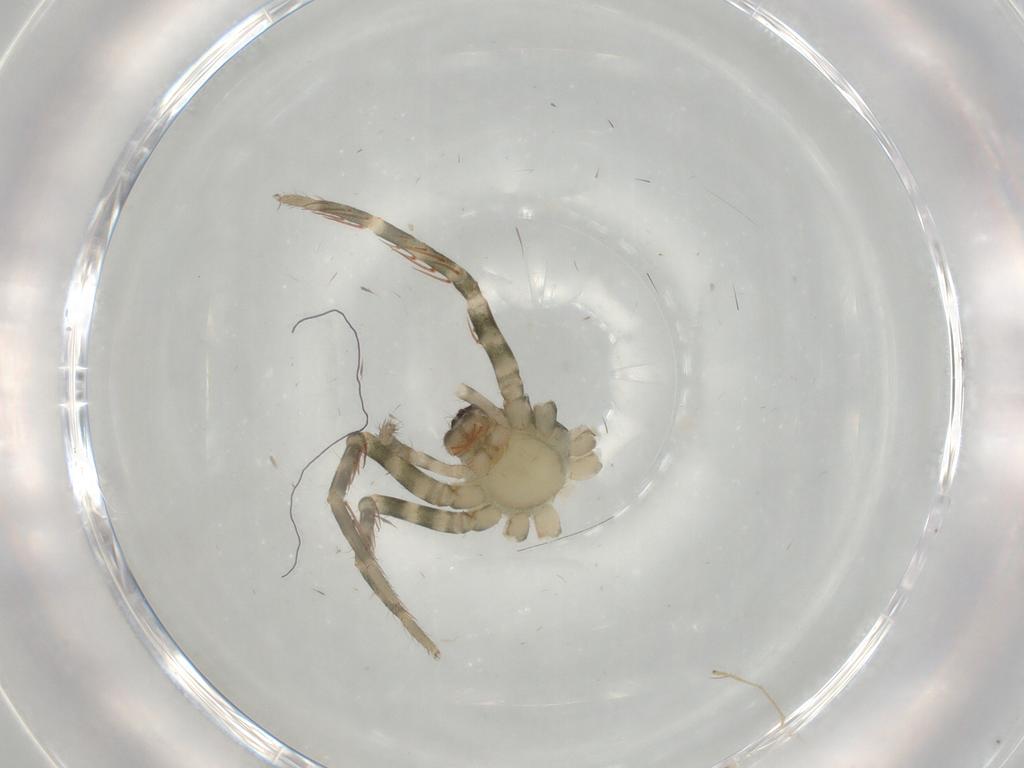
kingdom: Animalia
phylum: Arthropoda
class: Arachnida
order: Araneae
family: Ctenidae
